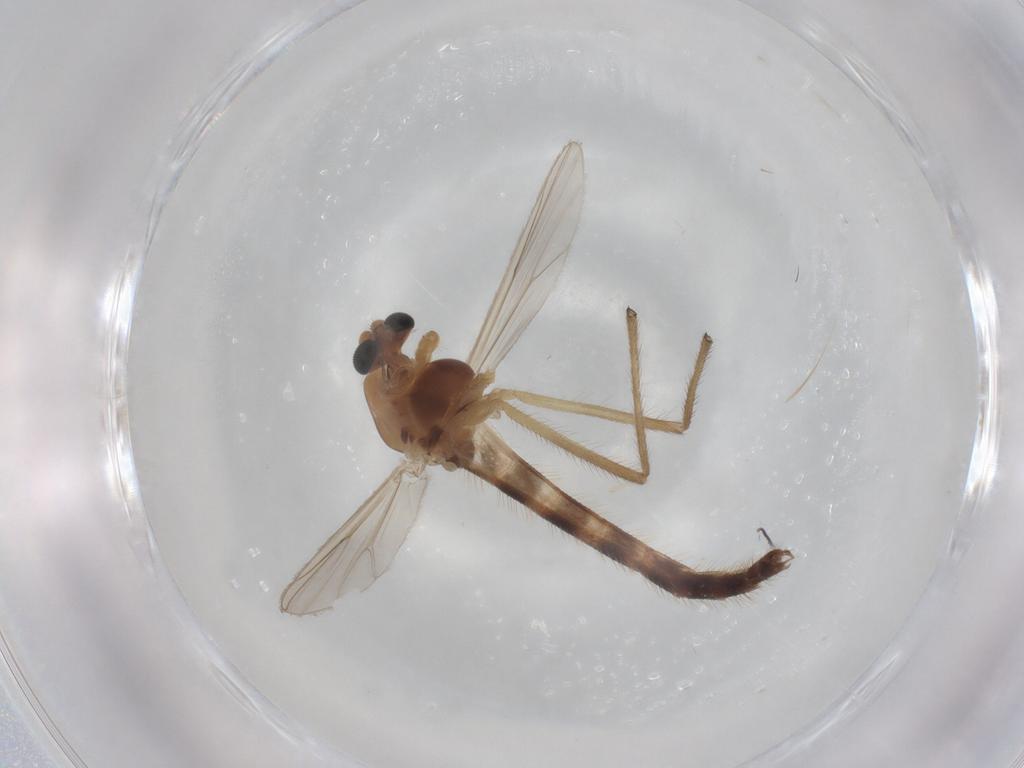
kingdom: Animalia
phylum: Arthropoda
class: Insecta
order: Diptera
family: Chironomidae
